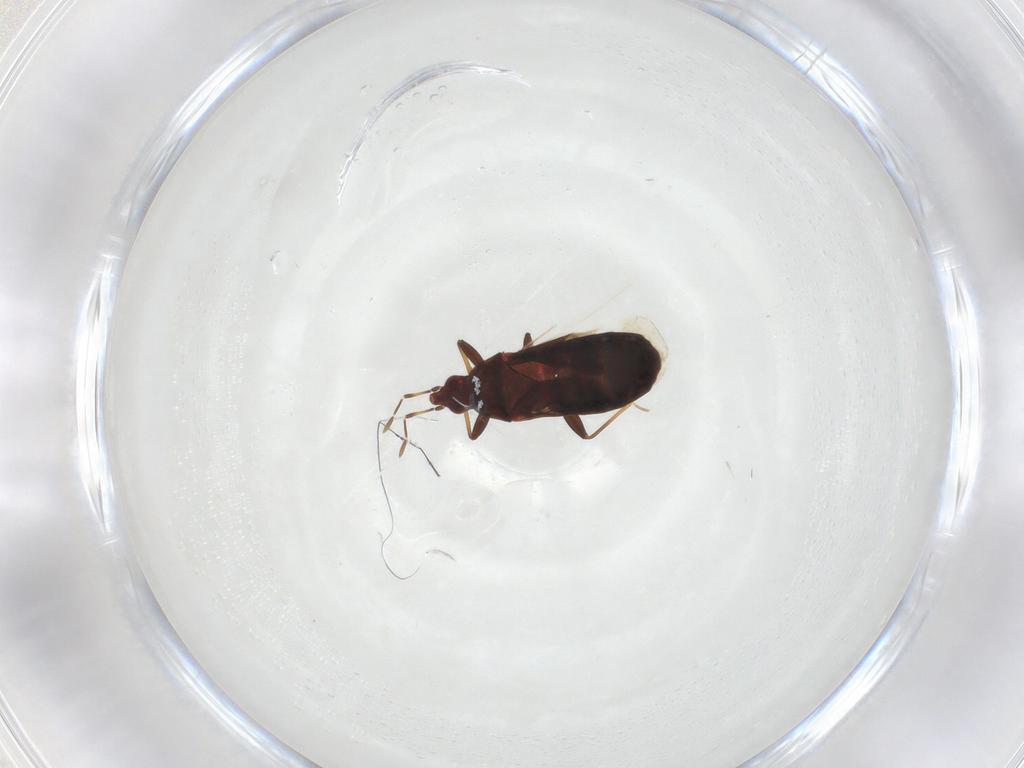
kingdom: Animalia
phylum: Arthropoda
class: Insecta
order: Hemiptera
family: Lasiochilidae
